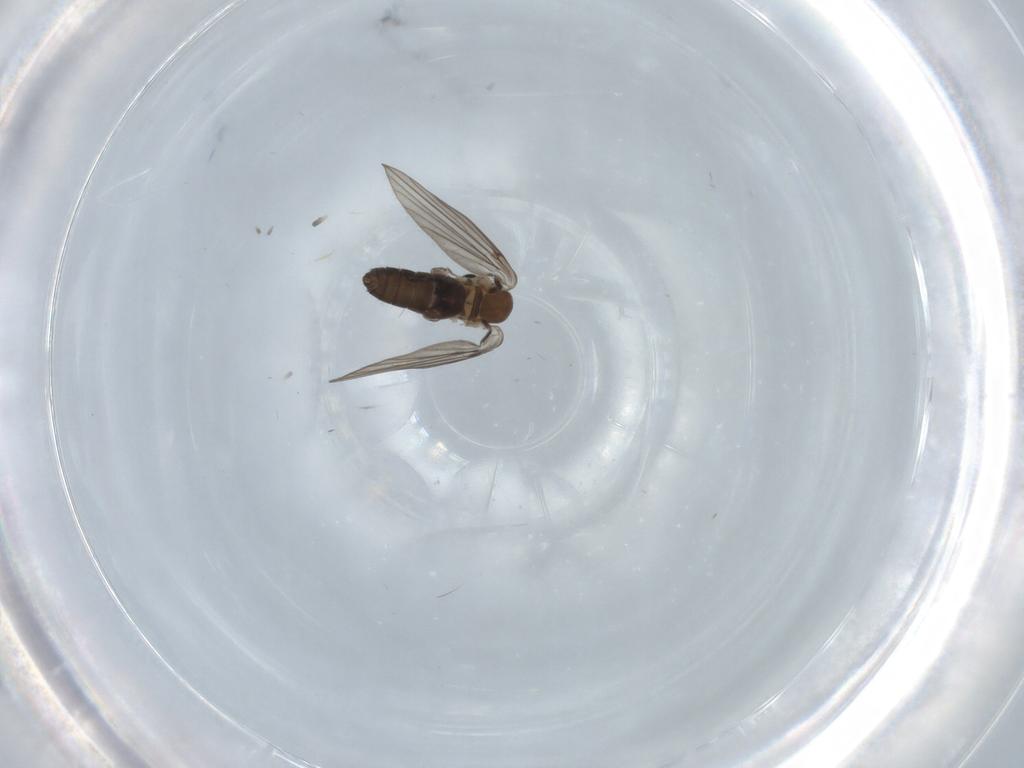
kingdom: Animalia
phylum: Arthropoda
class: Insecta
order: Diptera
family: Psychodidae
